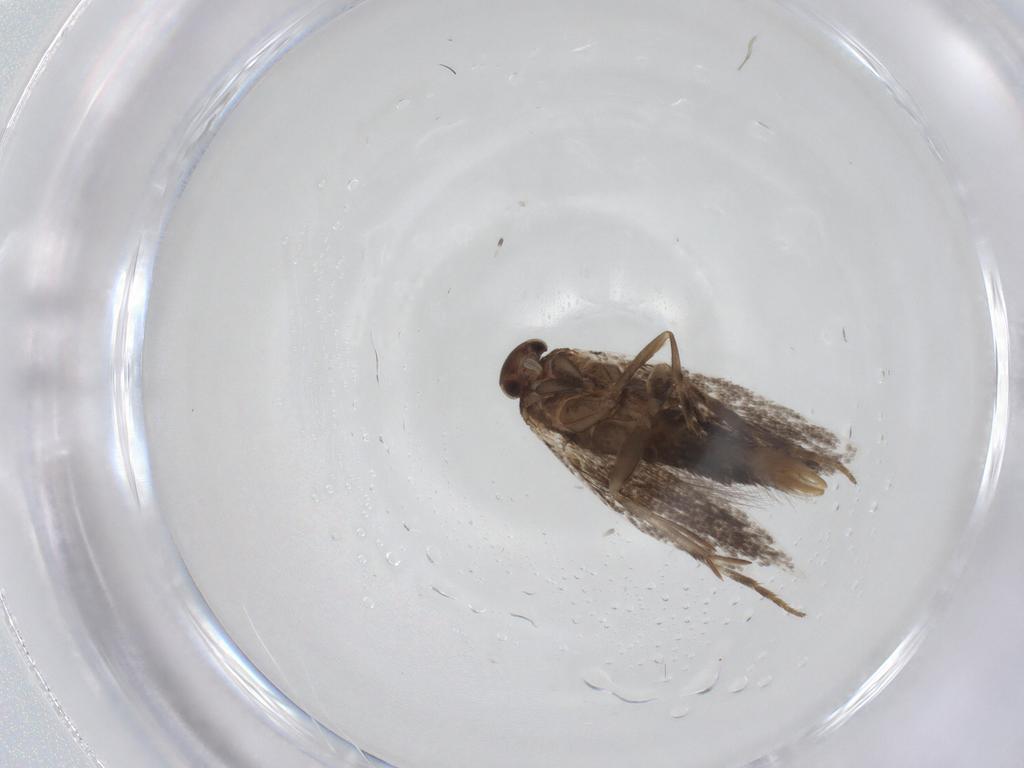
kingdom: Animalia
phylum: Arthropoda
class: Insecta
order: Lepidoptera
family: Elachistidae
